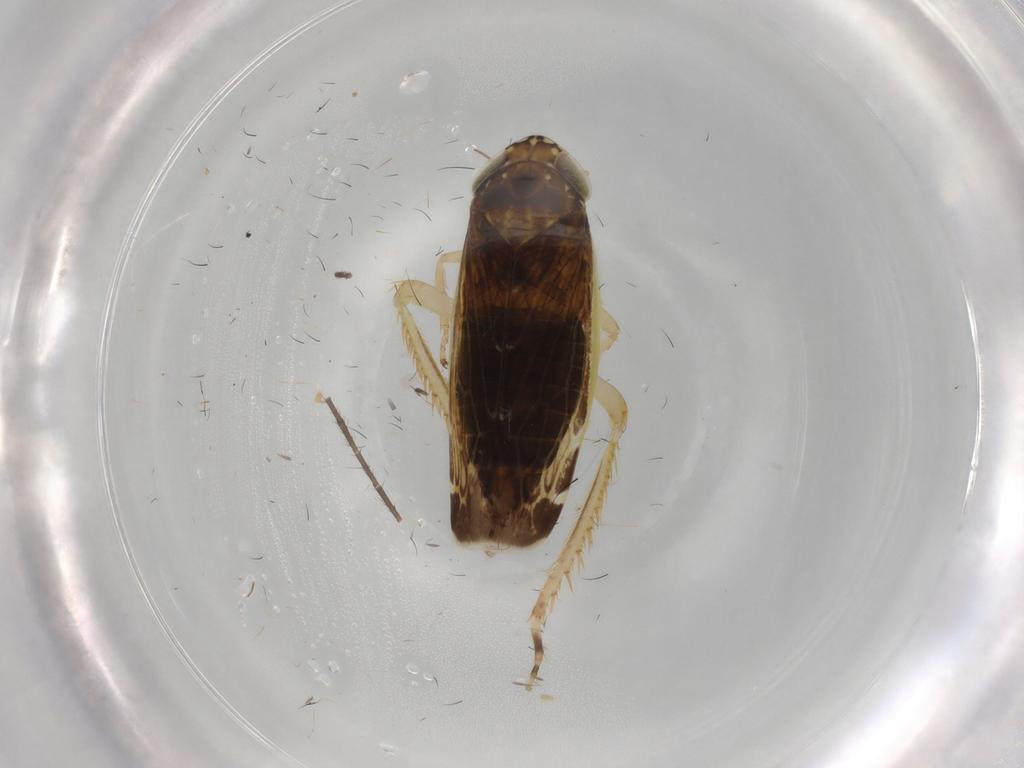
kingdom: Animalia
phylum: Arthropoda
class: Insecta
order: Hemiptera
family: Cicadellidae
